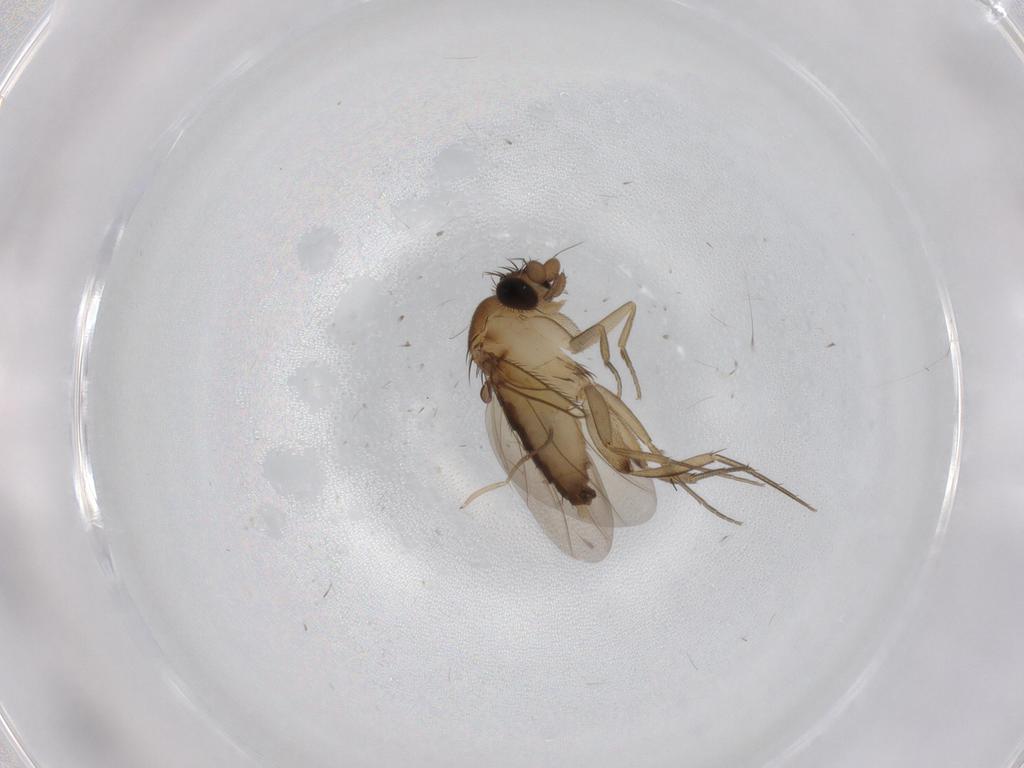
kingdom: Animalia
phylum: Arthropoda
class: Insecta
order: Diptera
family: Phoridae
